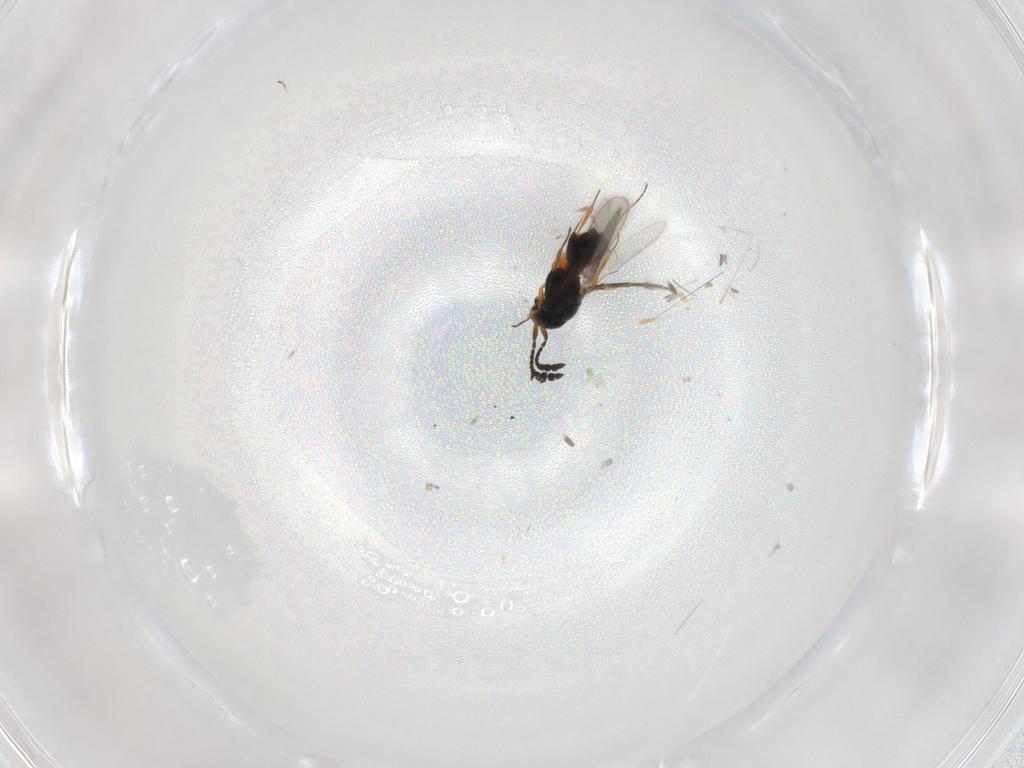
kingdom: Animalia
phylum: Arthropoda
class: Insecta
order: Hymenoptera
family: Scelionidae
